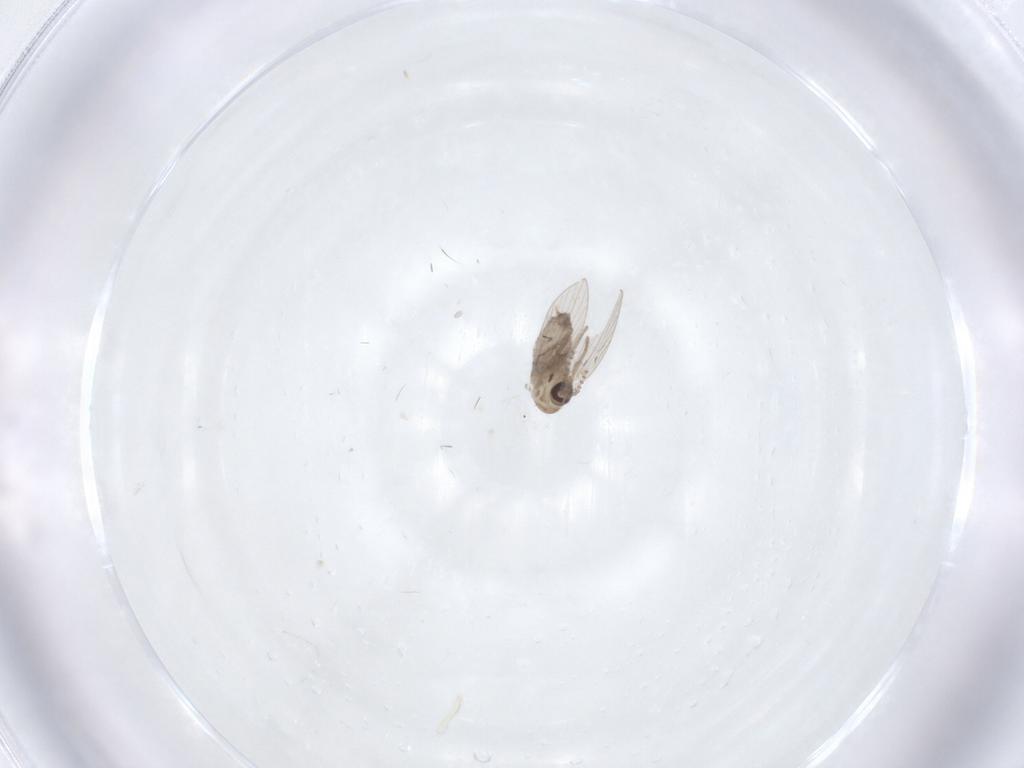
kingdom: Animalia
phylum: Arthropoda
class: Insecta
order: Diptera
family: Psychodidae
